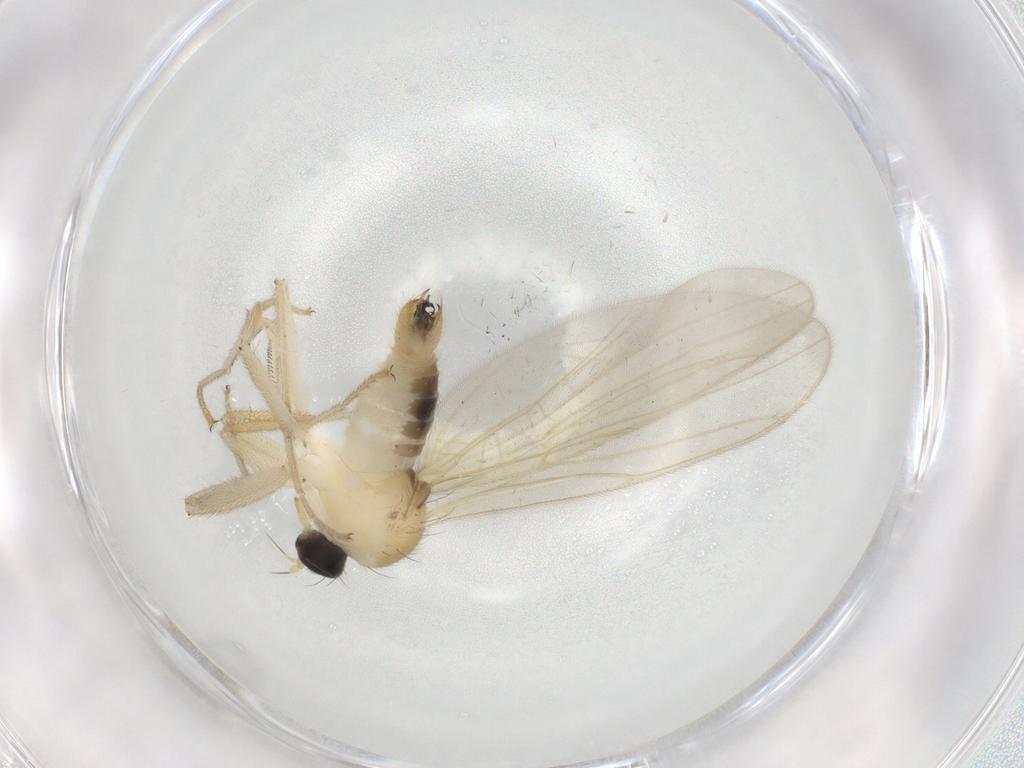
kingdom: Animalia
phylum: Arthropoda
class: Insecta
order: Diptera
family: Hybotidae
